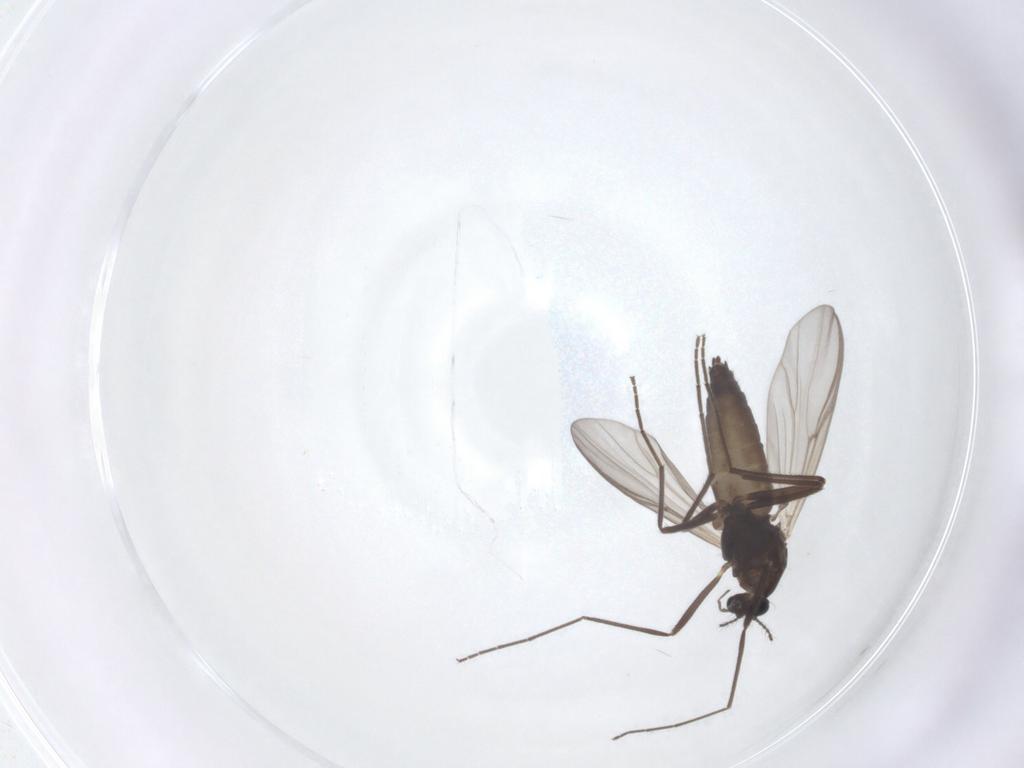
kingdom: Animalia
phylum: Arthropoda
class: Insecta
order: Diptera
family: Chironomidae
